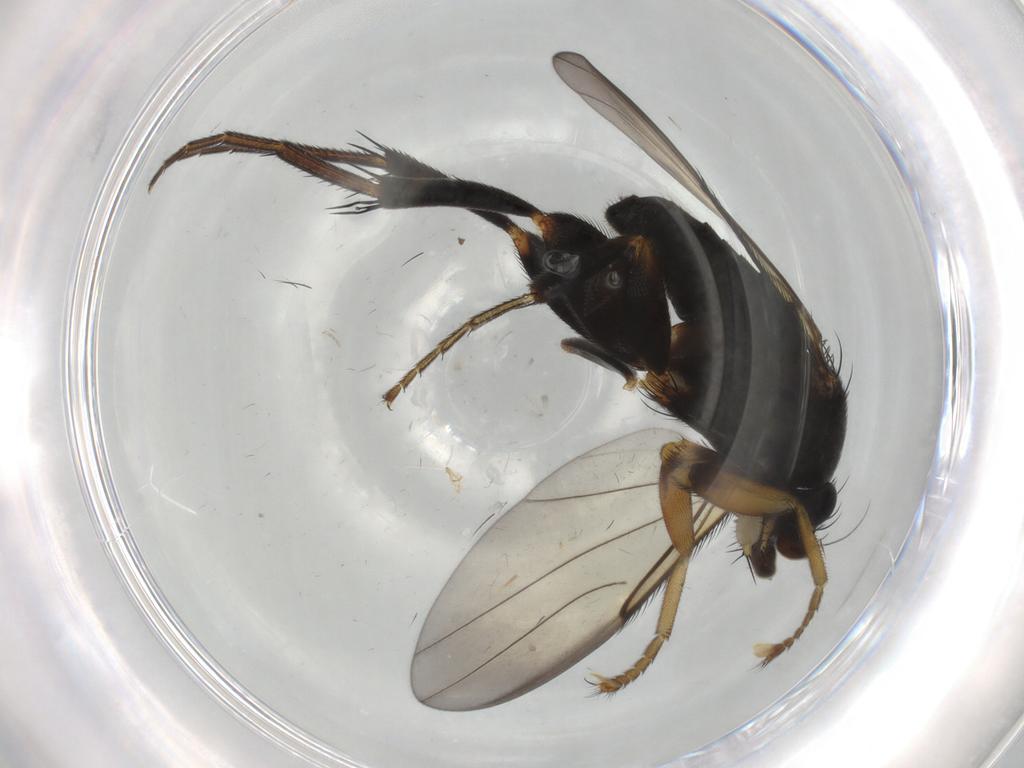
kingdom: Animalia
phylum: Arthropoda
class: Insecta
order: Diptera
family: Phoridae
